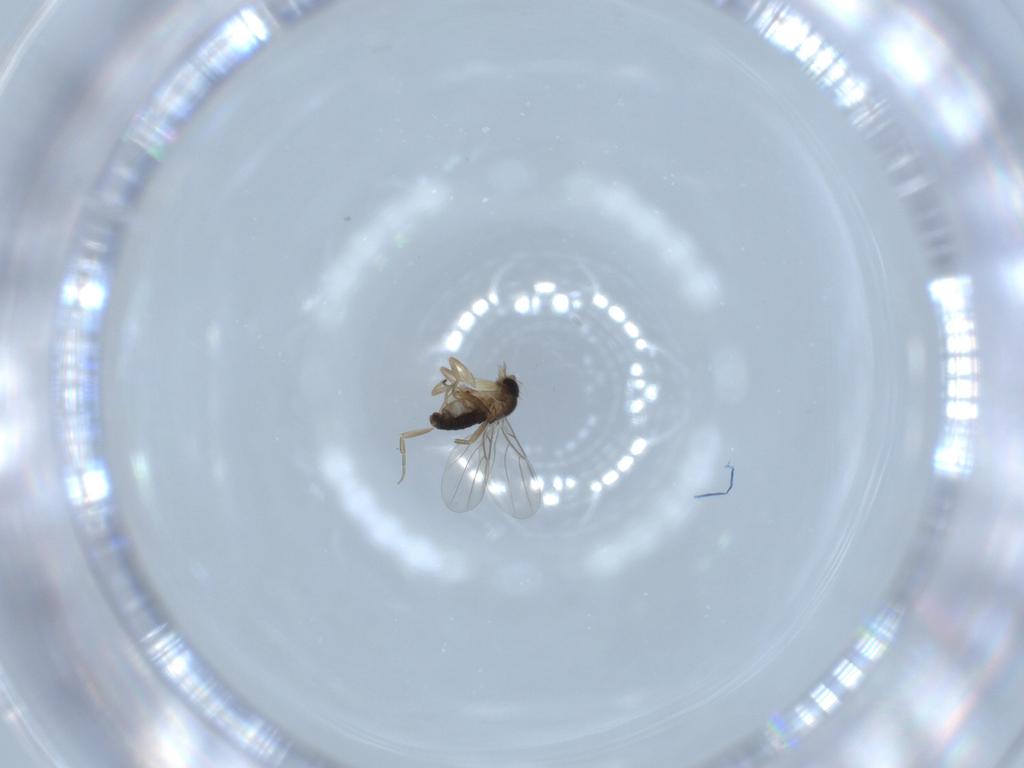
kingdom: Animalia
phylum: Arthropoda
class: Insecta
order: Diptera
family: Phoridae
